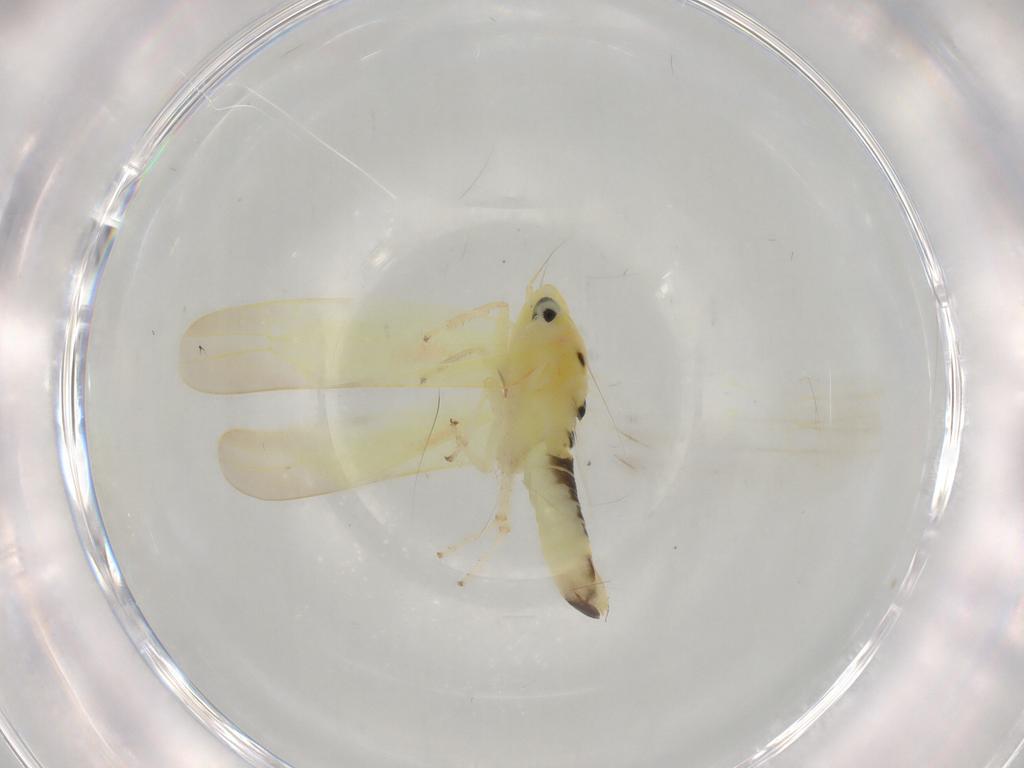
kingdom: Animalia
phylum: Arthropoda
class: Insecta
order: Hemiptera
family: Cicadellidae
